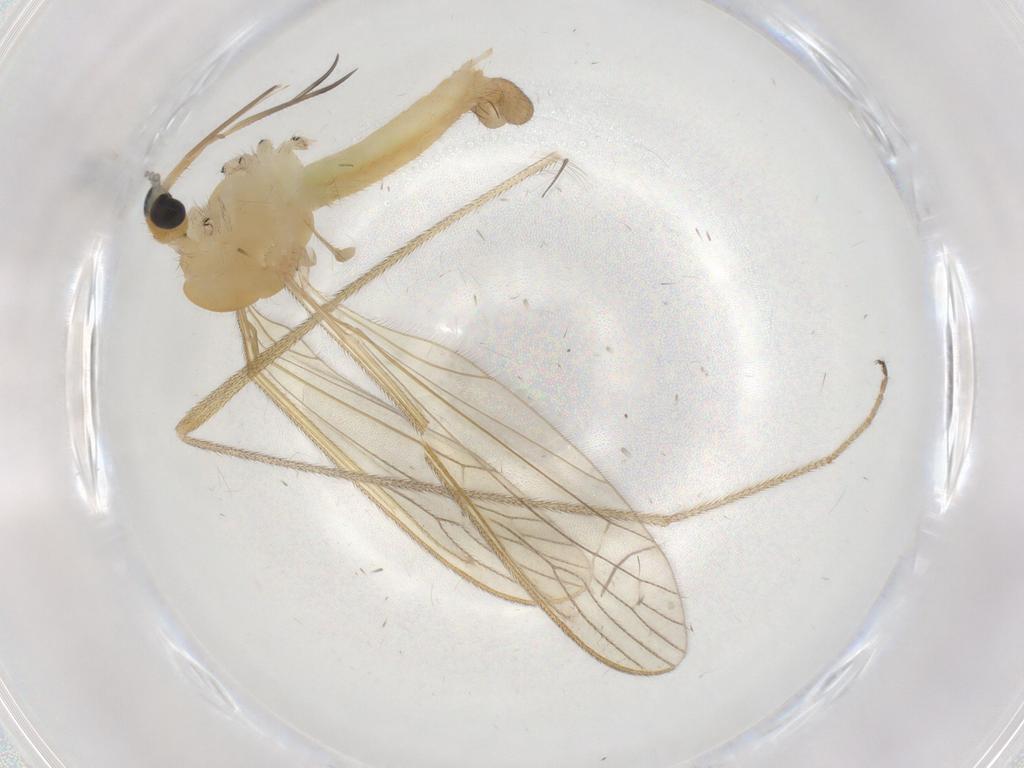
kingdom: Animalia
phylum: Arthropoda
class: Insecta
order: Diptera
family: Limoniidae
